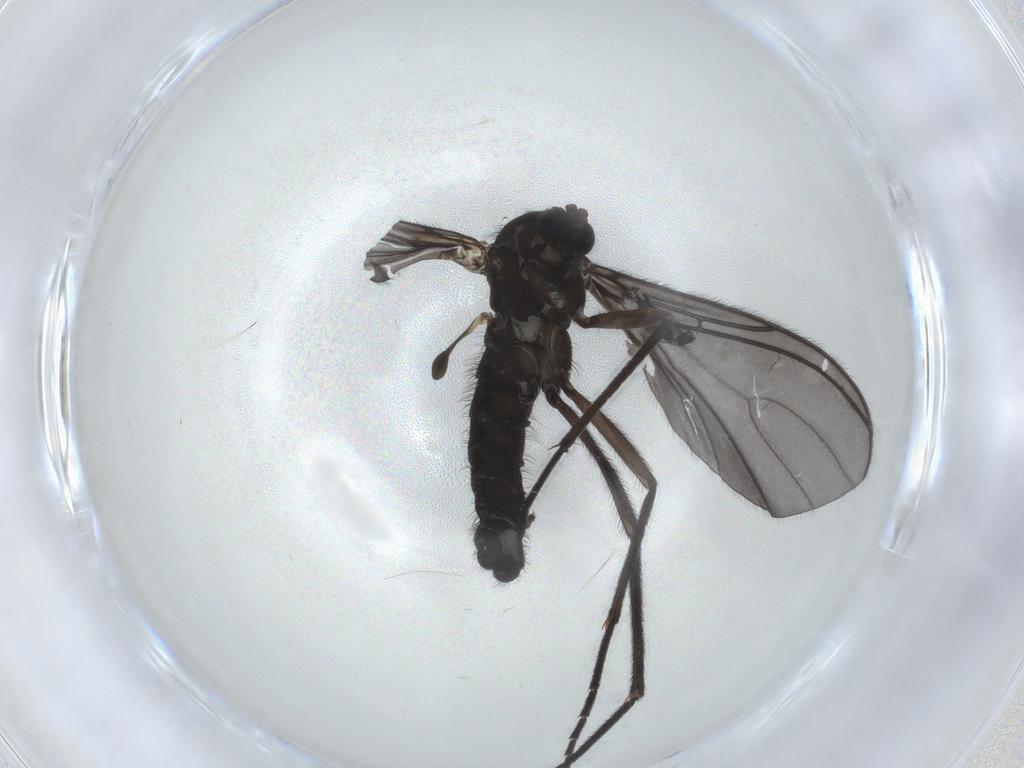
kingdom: Animalia
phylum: Arthropoda
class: Insecta
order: Diptera
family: Sciaridae
